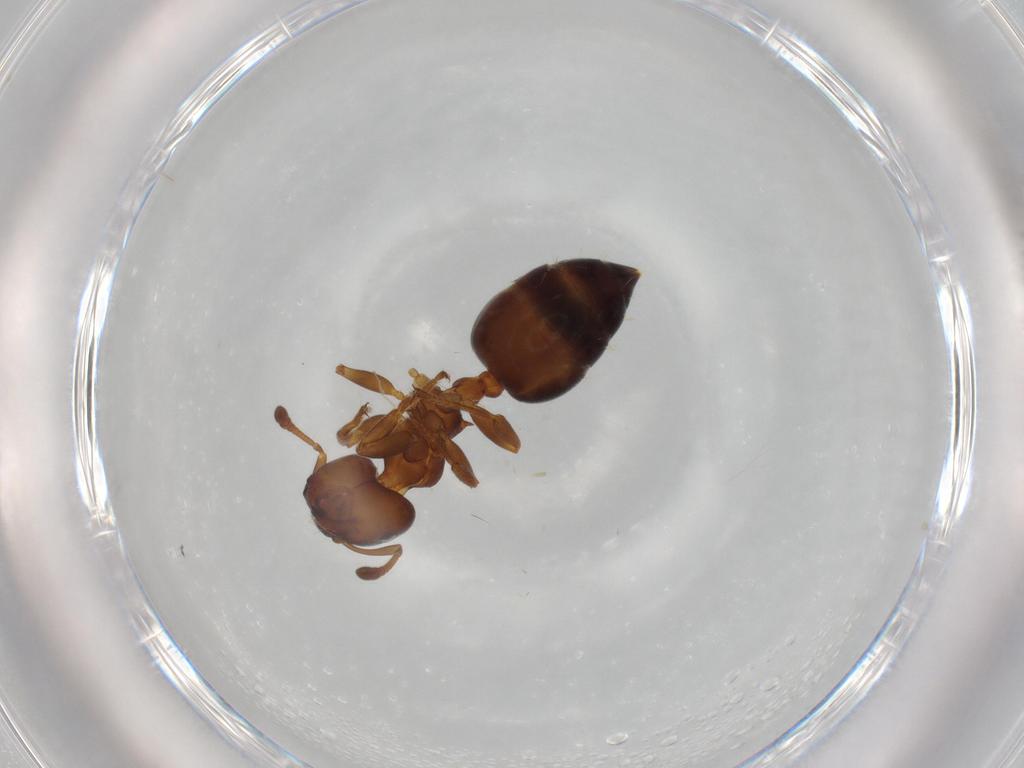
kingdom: Animalia
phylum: Arthropoda
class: Insecta
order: Hymenoptera
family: Formicidae
